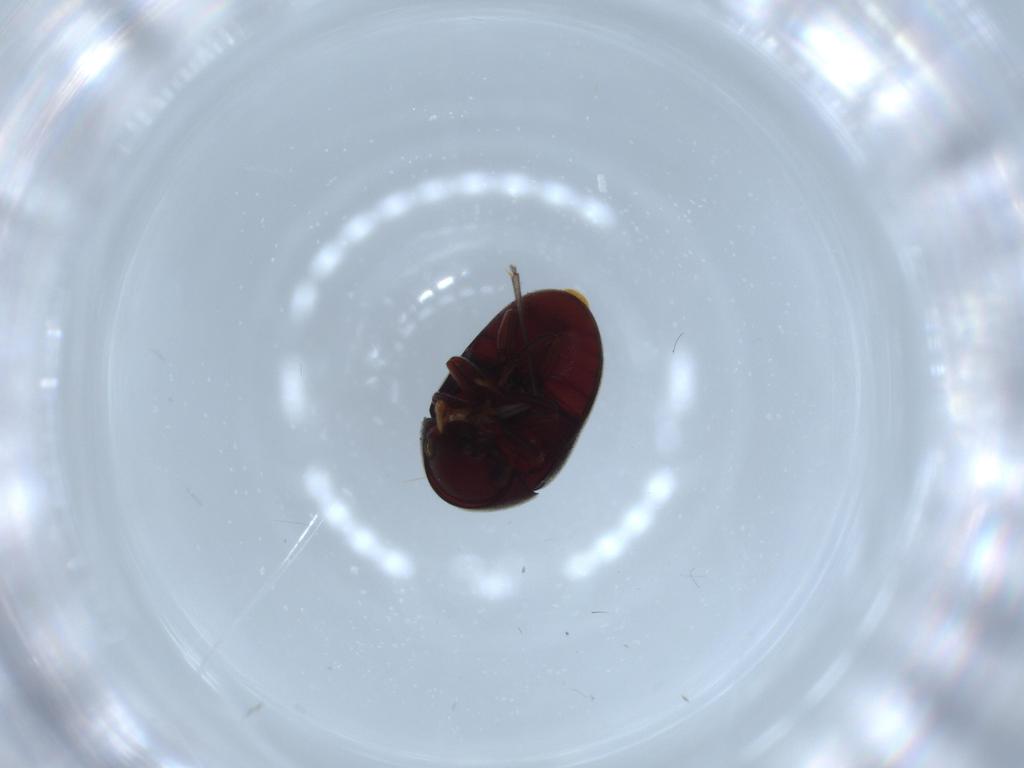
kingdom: Animalia
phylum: Arthropoda
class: Insecta
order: Coleoptera
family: Ptinidae
